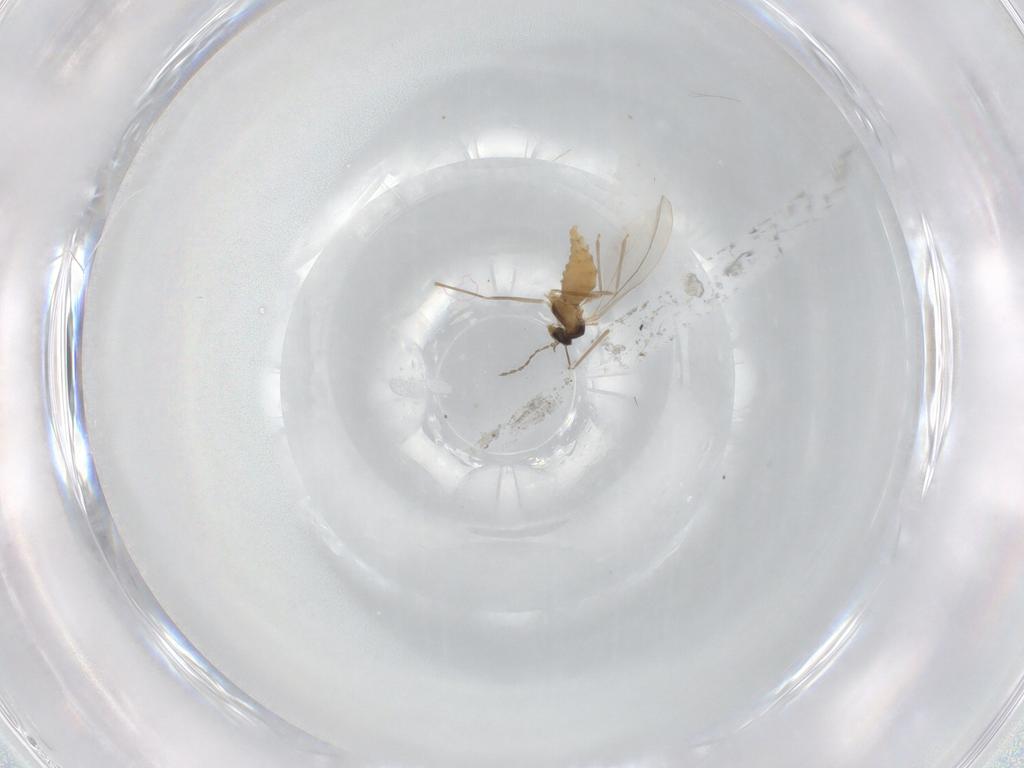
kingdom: Animalia
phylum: Arthropoda
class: Insecta
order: Diptera
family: Cecidomyiidae
